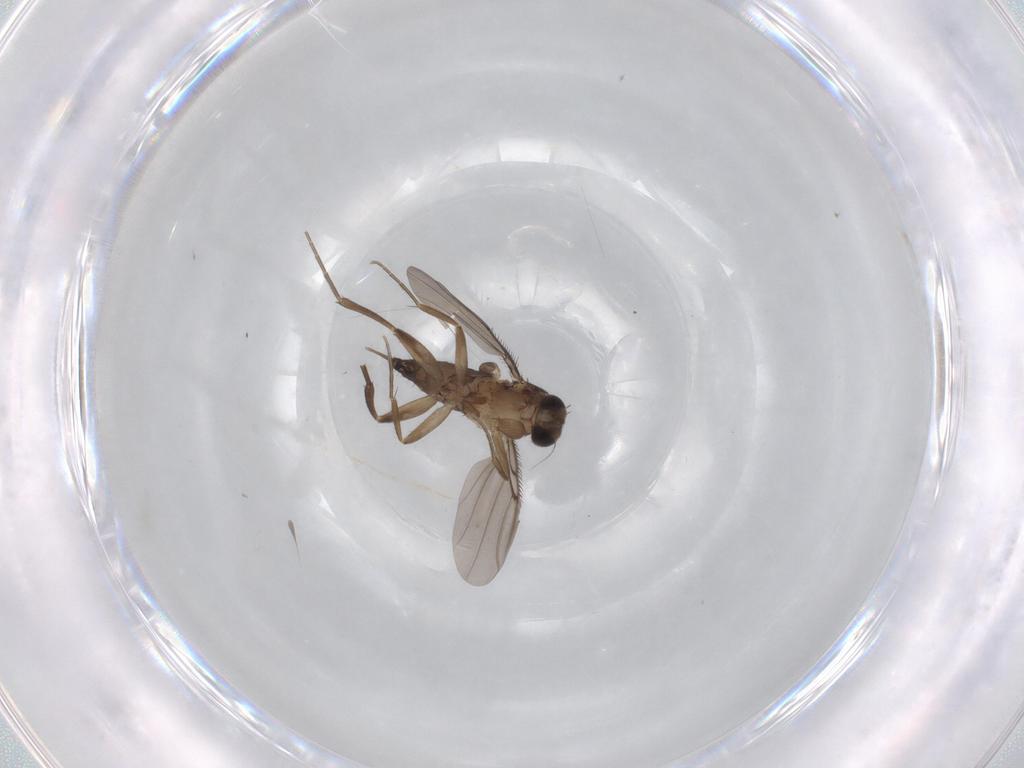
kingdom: Animalia
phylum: Arthropoda
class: Insecta
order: Diptera
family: Phoridae
